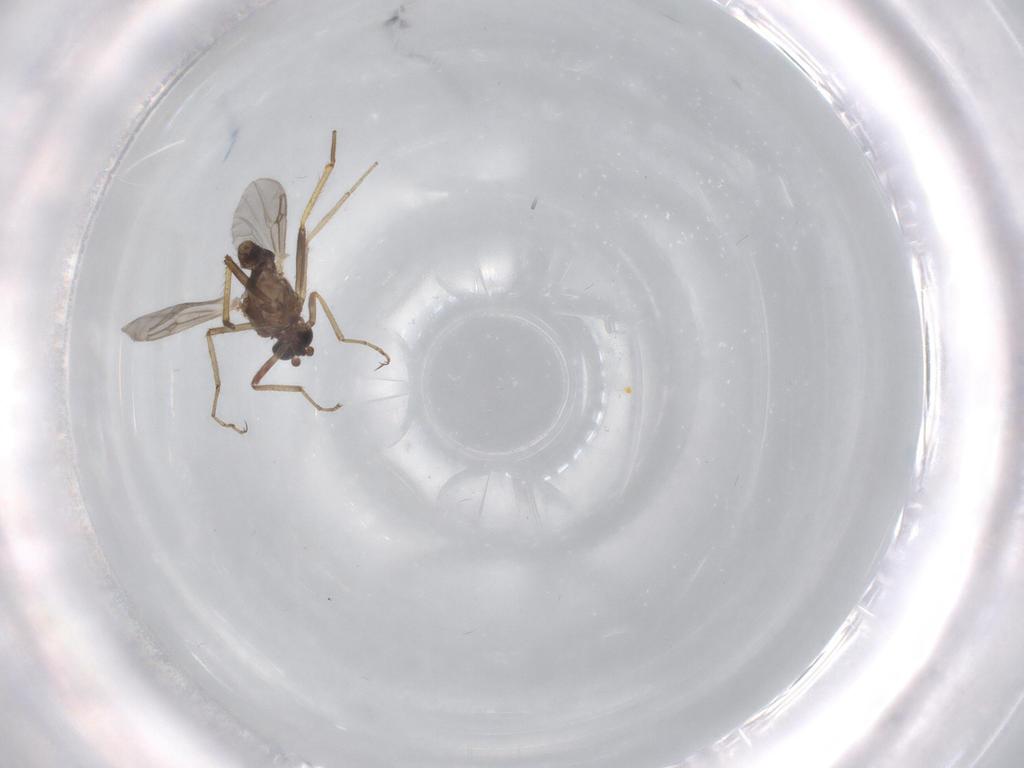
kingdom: Animalia
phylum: Arthropoda
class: Insecta
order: Diptera
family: Ceratopogonidae
